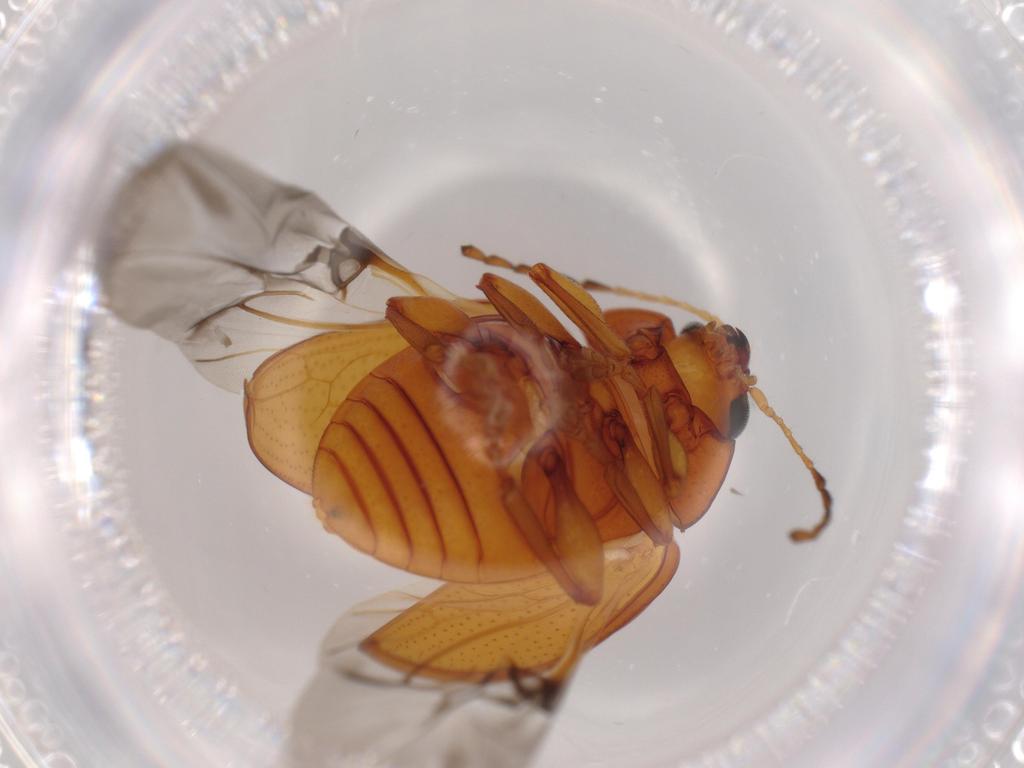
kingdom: Animalia
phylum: Arthropoda
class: Insecta
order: Coleoptera
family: Chrysomelidae
